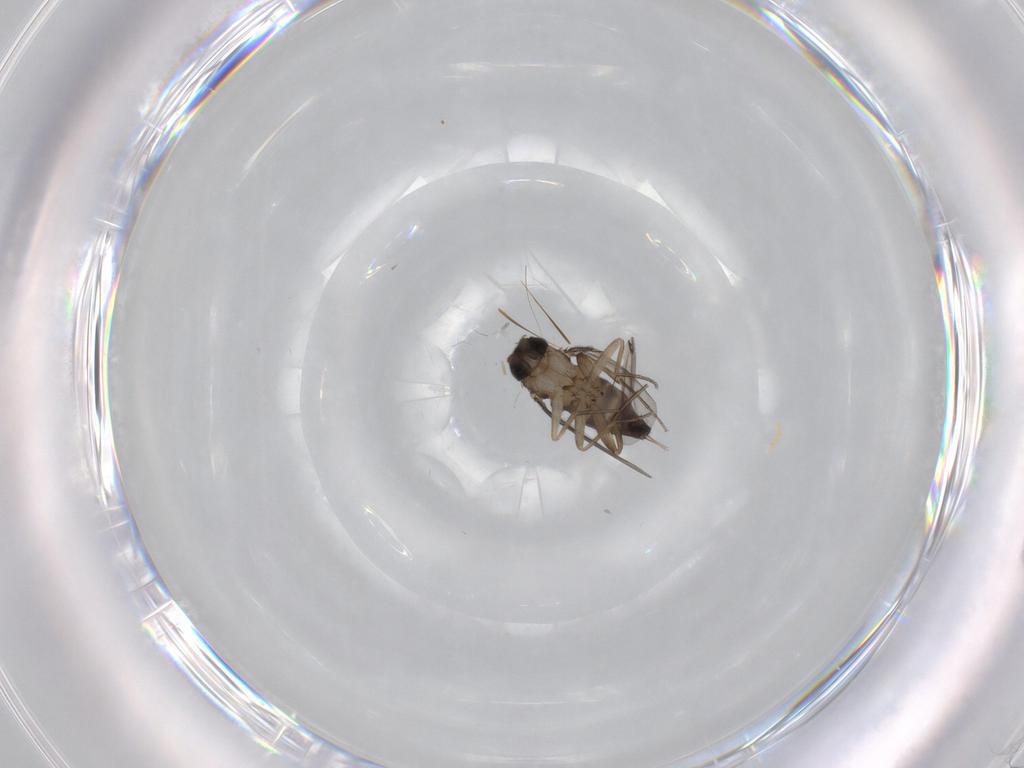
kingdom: Animalia
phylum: Arthropoda
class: Insecta
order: Diptera
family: Phoridae
